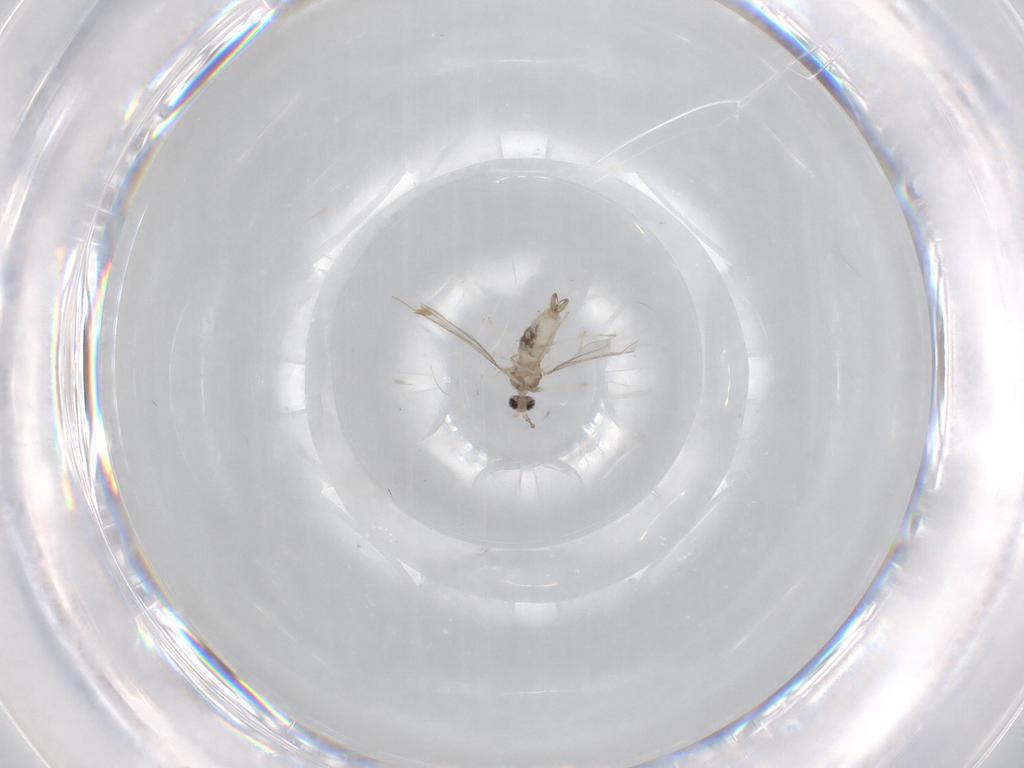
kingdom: Animalia
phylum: Arthropoda
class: Insecta
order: Diptera
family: Cecidomyiidae
